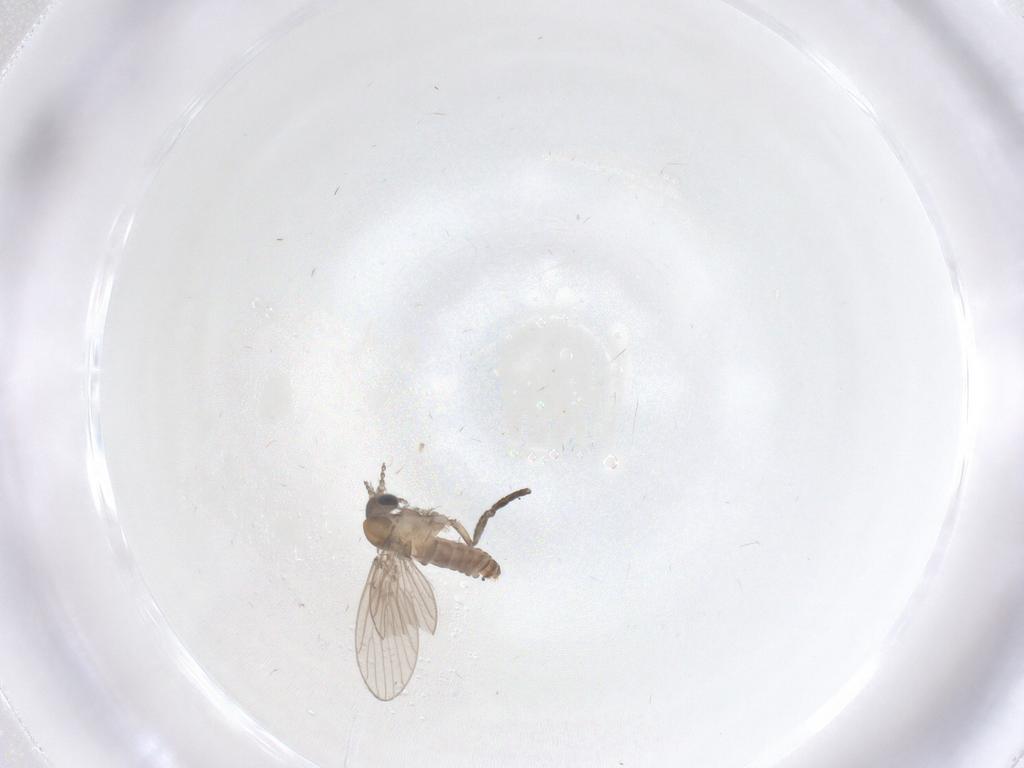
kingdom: Animalia
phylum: Arthropoda
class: Insecta
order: Diptera
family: Psychodidae
